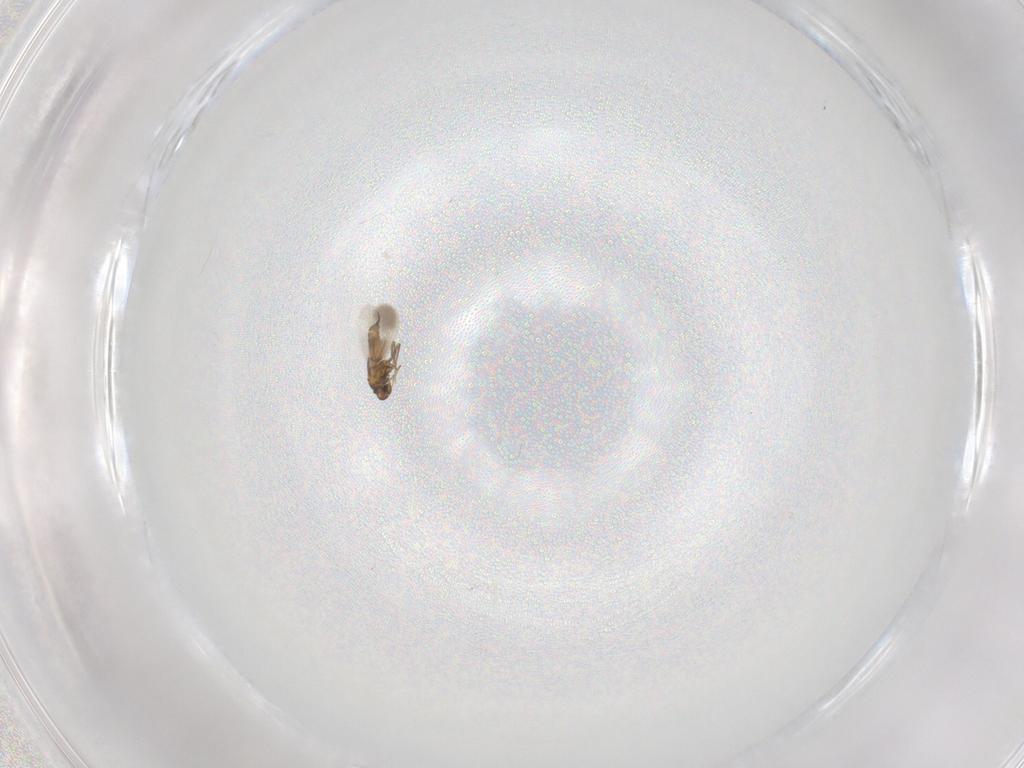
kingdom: Animalia
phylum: Arthropoda
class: Insecta
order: Hemiptera
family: Aleyrodidae
